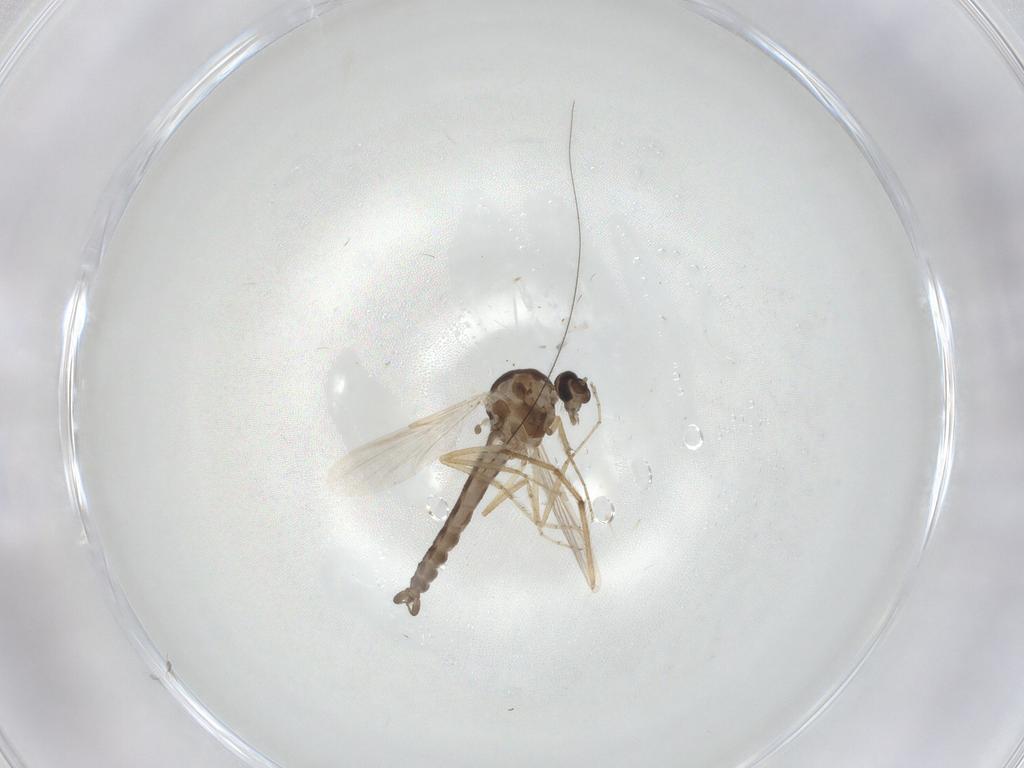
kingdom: Animalia
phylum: Arthropoda
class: Insecta
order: Diptera
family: Ceratopogonidae
